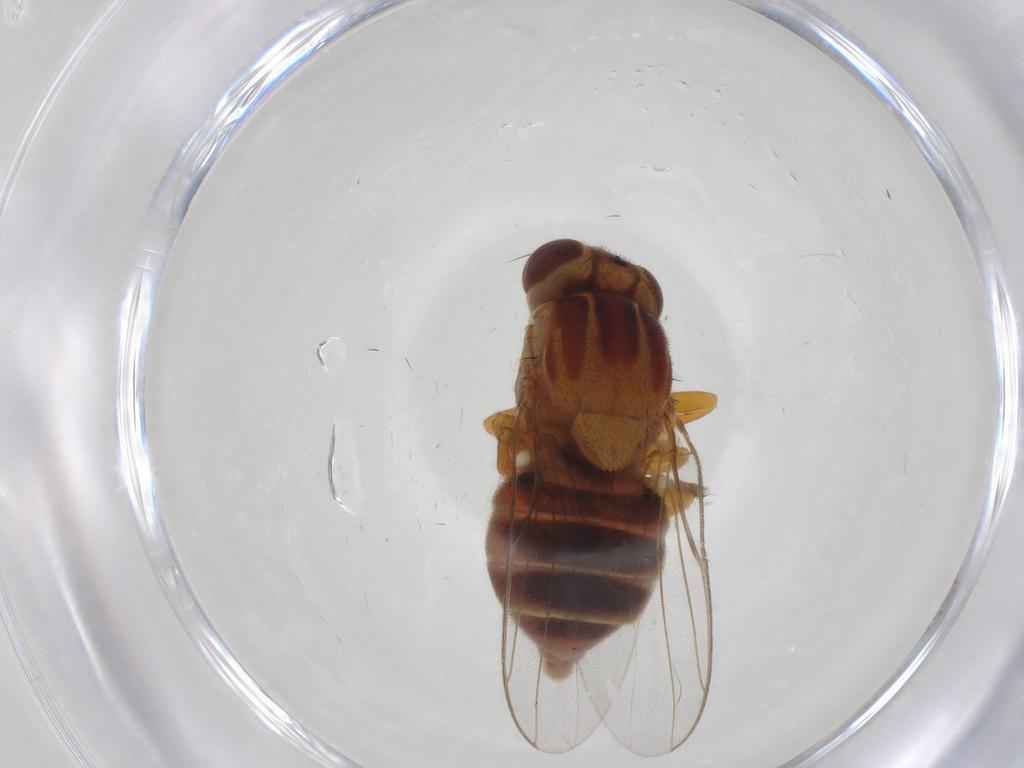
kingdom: Animalia
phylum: Arthropoda
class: Insecta
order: Diptera
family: Chloropidae
